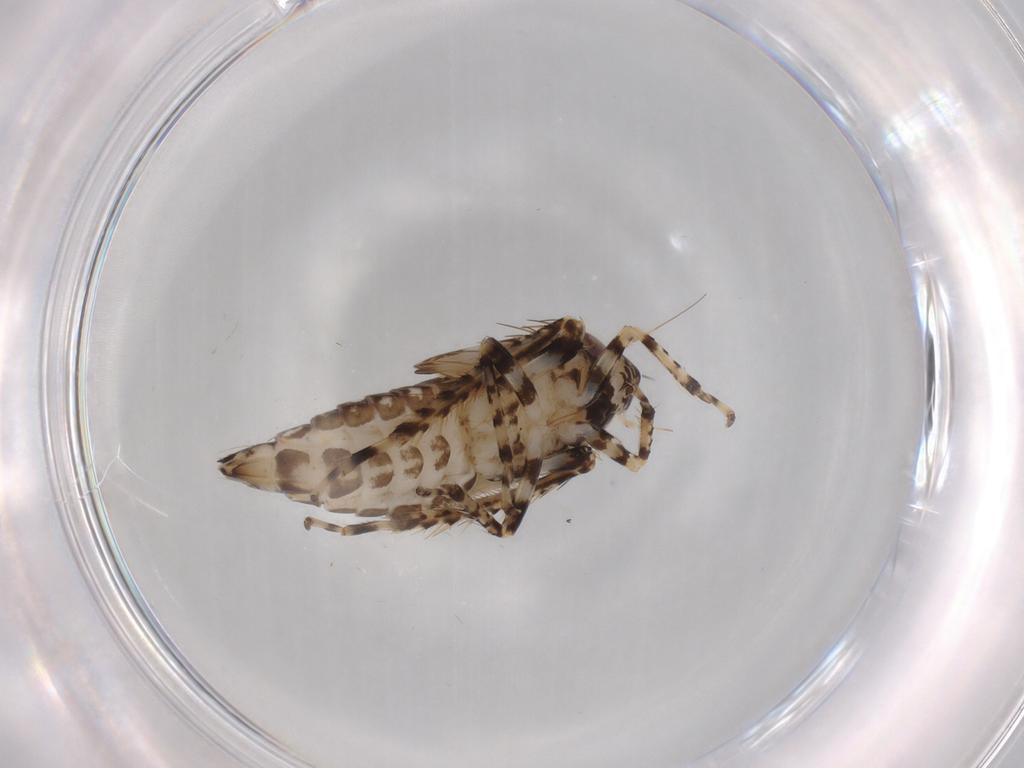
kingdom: Animalia
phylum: Arthropoda
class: Insecta
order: Hemiptera
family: Cicadellidae
